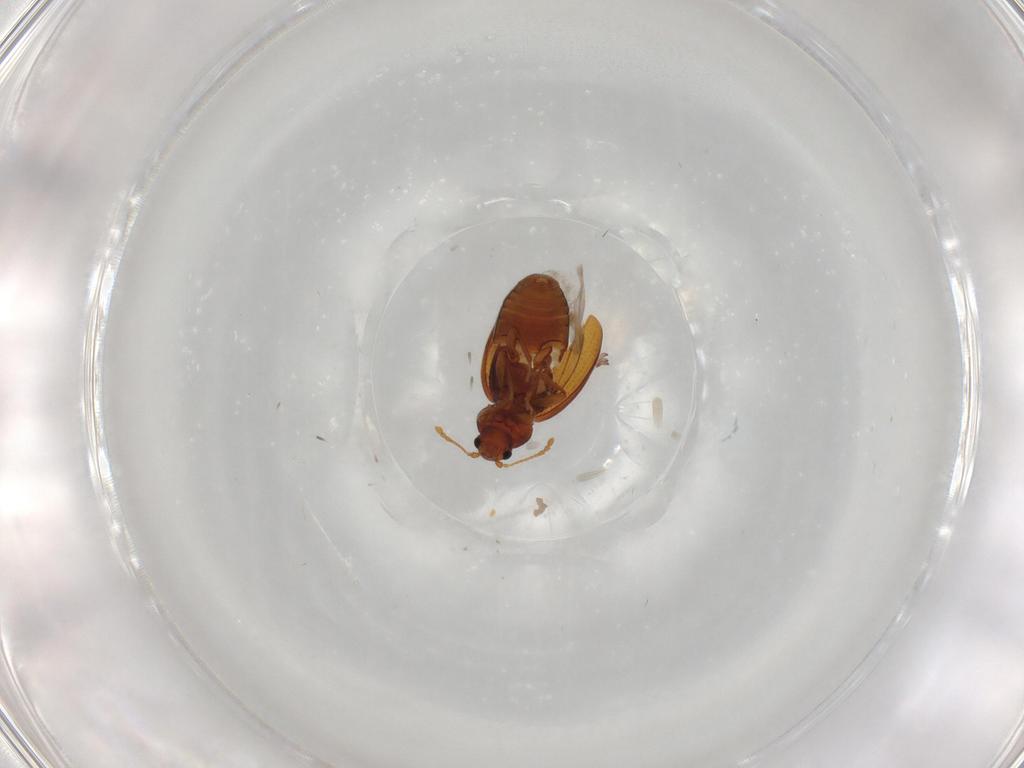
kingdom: Animalia
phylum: Arthropoda
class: Insecta
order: Coleoptera
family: Latridiidae
